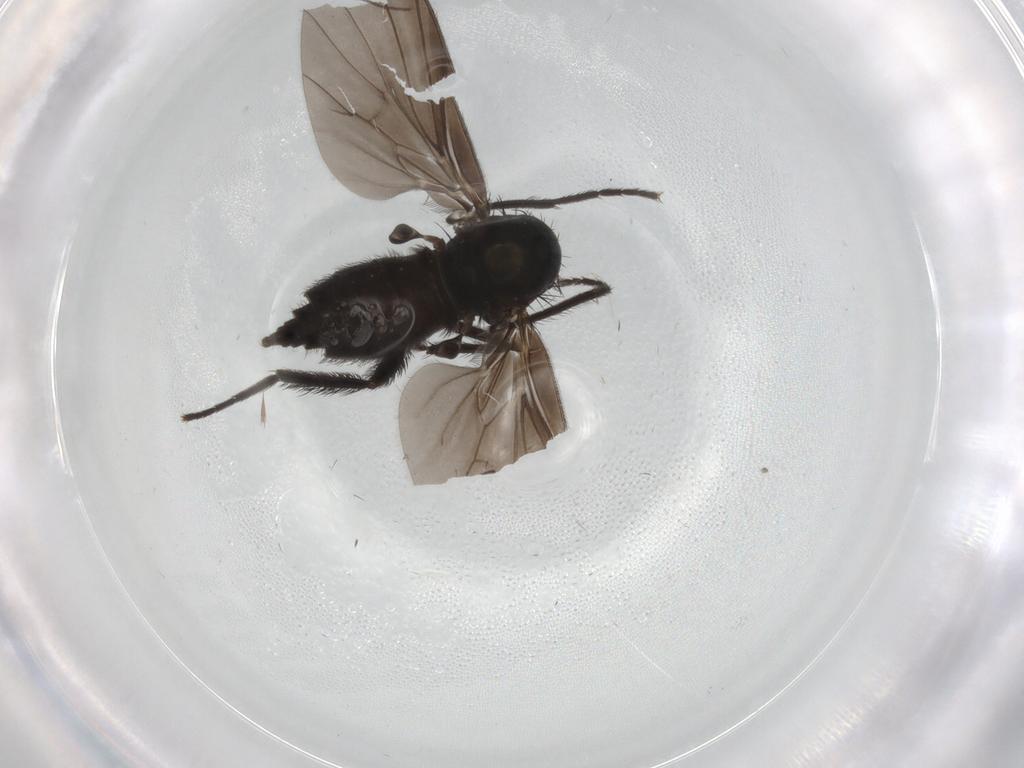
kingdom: Animalia
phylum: Arthropoda
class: Insecta
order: Diptera
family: Empididae
